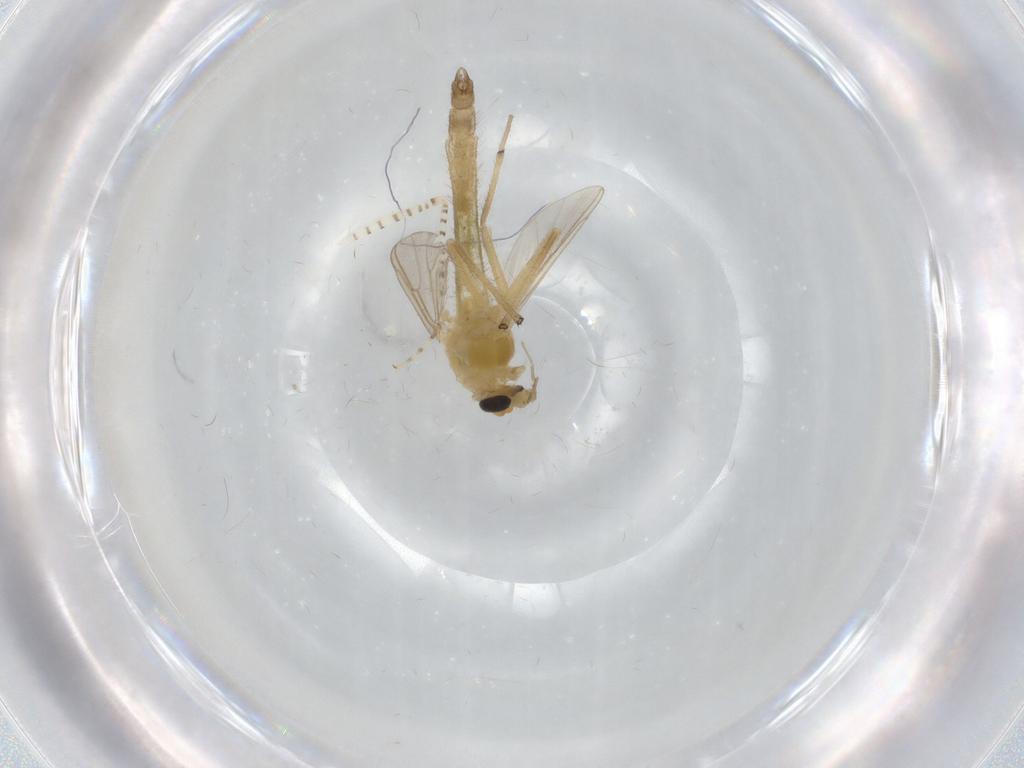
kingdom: Animalia
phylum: Arthropoda
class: Insecta
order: Diptera
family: Chironomidae
